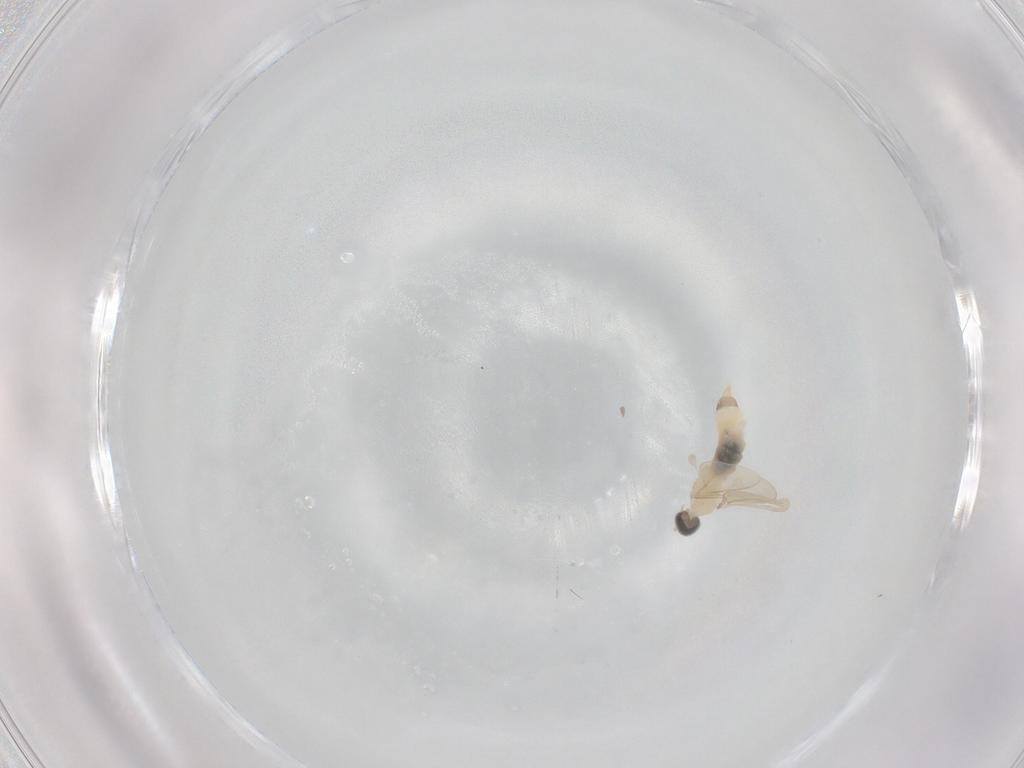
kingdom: Animalia
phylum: Arthropoda
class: Insecta
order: Diptera
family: Cecidomyiidae
